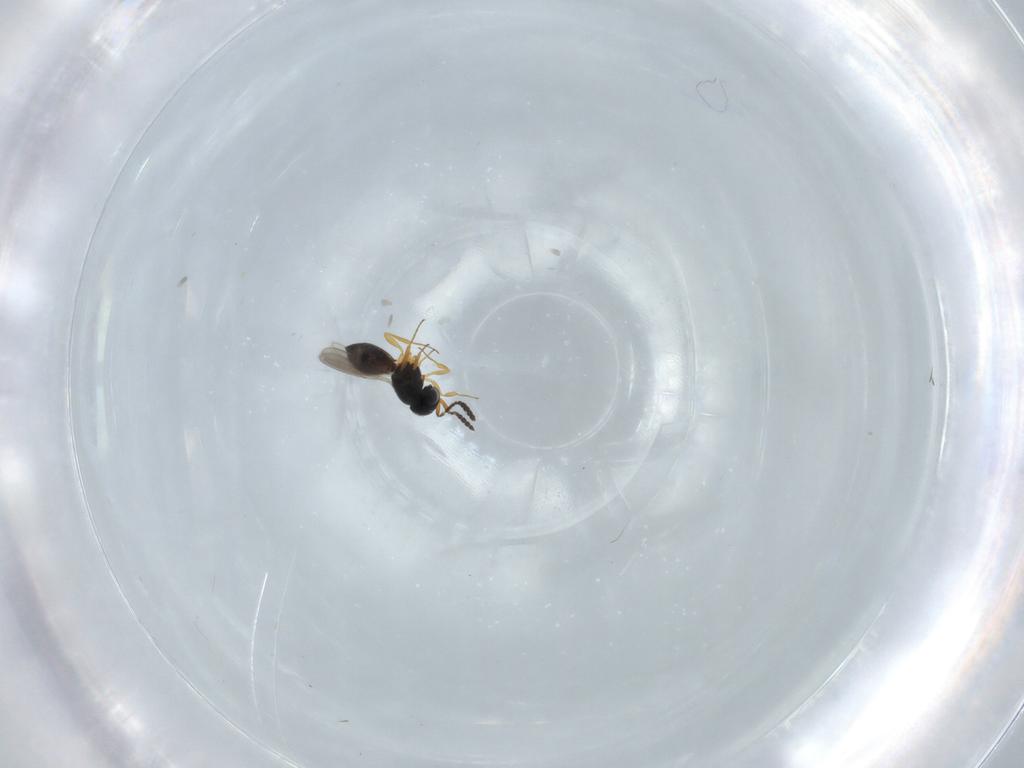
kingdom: Animalia
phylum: Arthropoda
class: Insecta
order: Hymenoptera
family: Scelionidae
